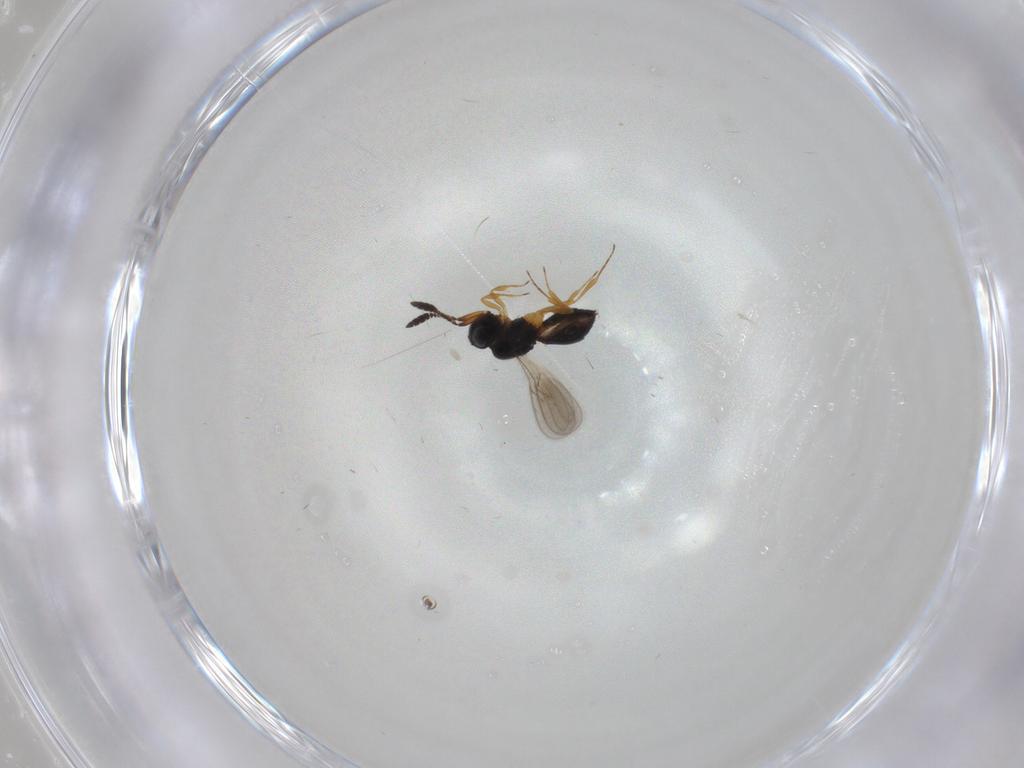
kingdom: Animalia
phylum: Arthropoda
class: Insecta
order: Hymenoptera
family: Scelionidae
